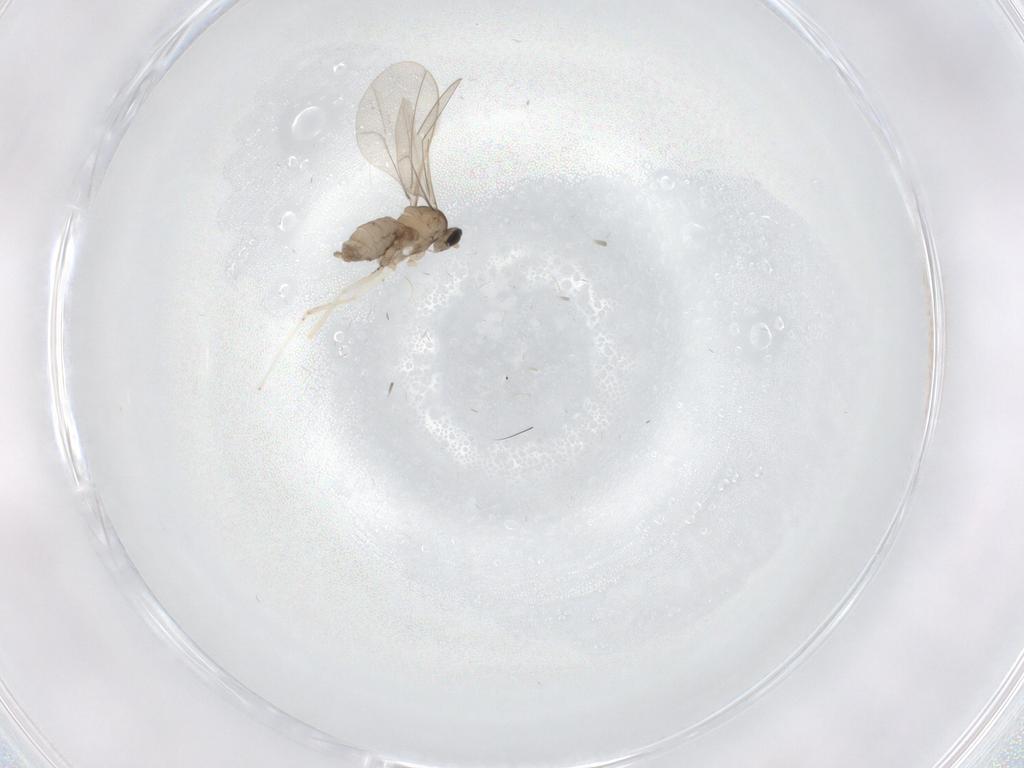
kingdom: Animalia
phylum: Arthropoda
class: Insecta
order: Diptera
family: Cecidomyiidae
